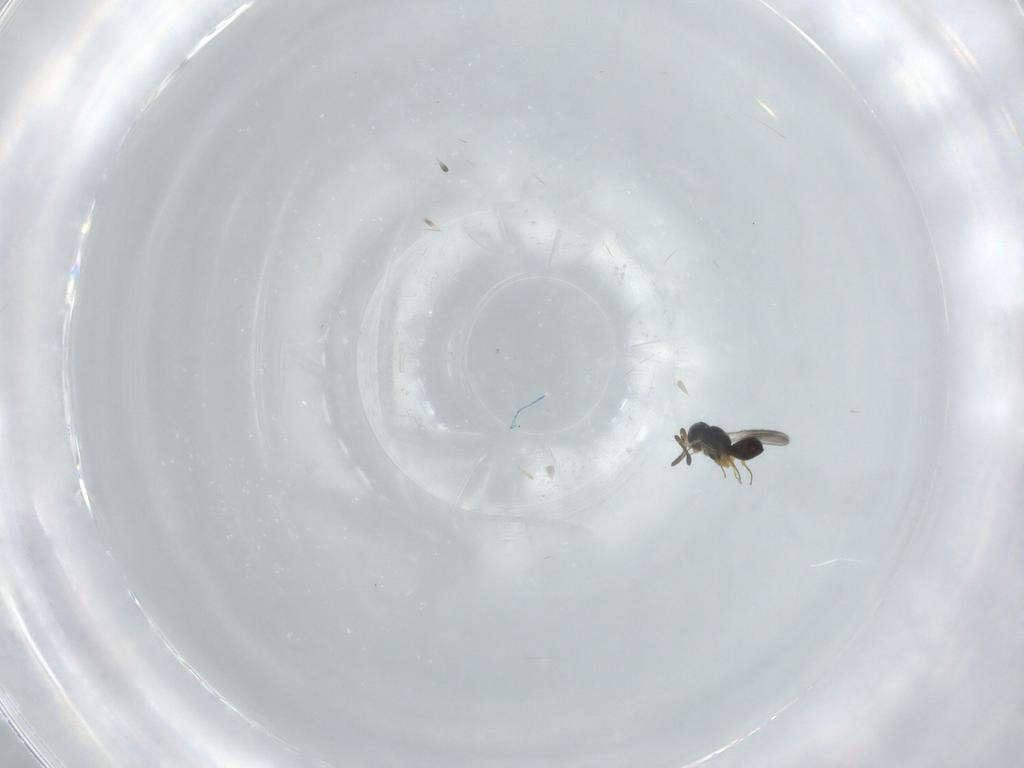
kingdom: Animalia
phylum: Arthropoda
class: Insecta
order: Hymenoptera
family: Scelionidae
